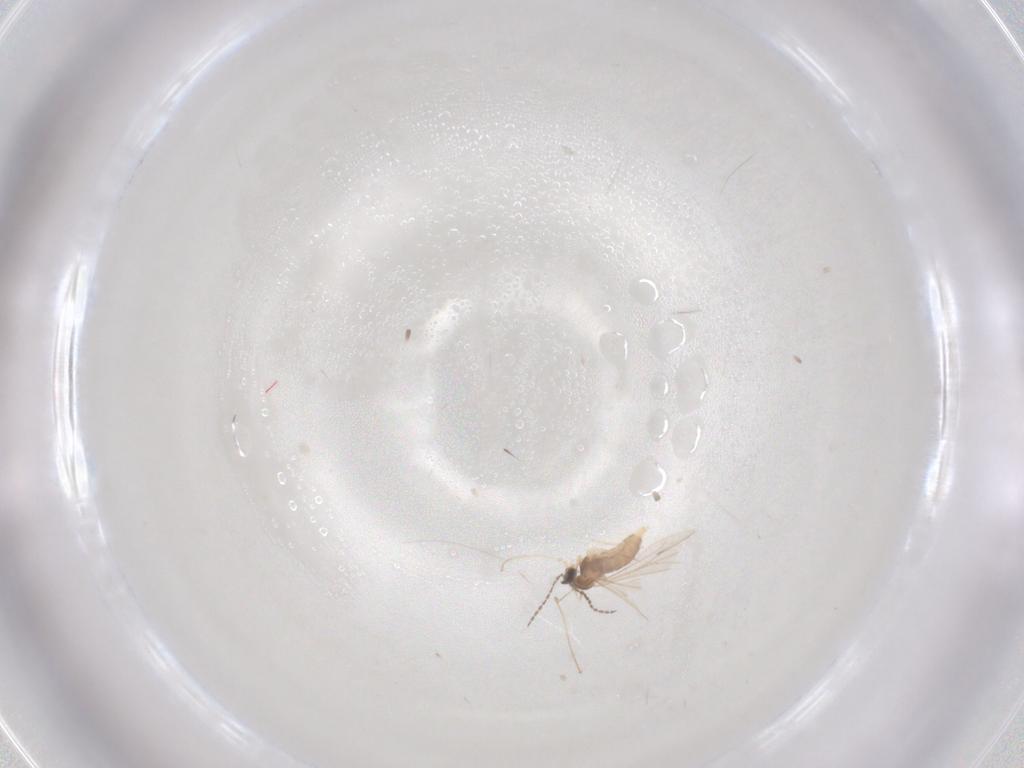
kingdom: Animalia
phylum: Arthropoda
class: Insecta
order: Diptera
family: Cecidomyiidae
